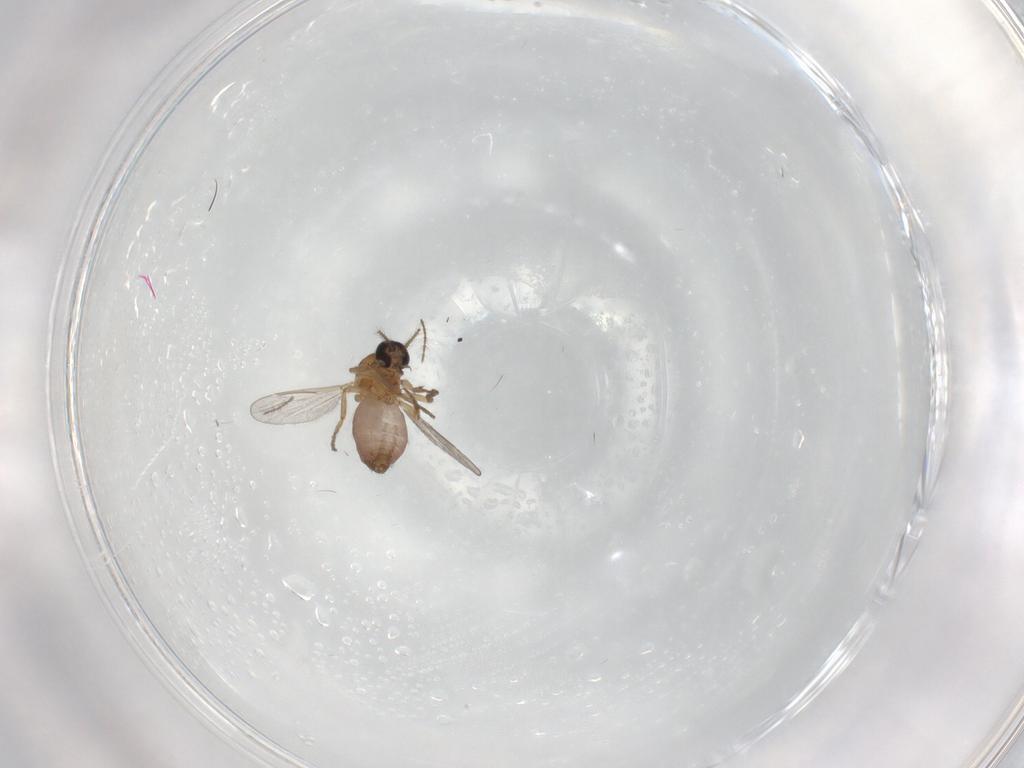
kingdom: Animalia
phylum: Arthropoda
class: Insecta
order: Diptera
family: Ceratopogonidae
